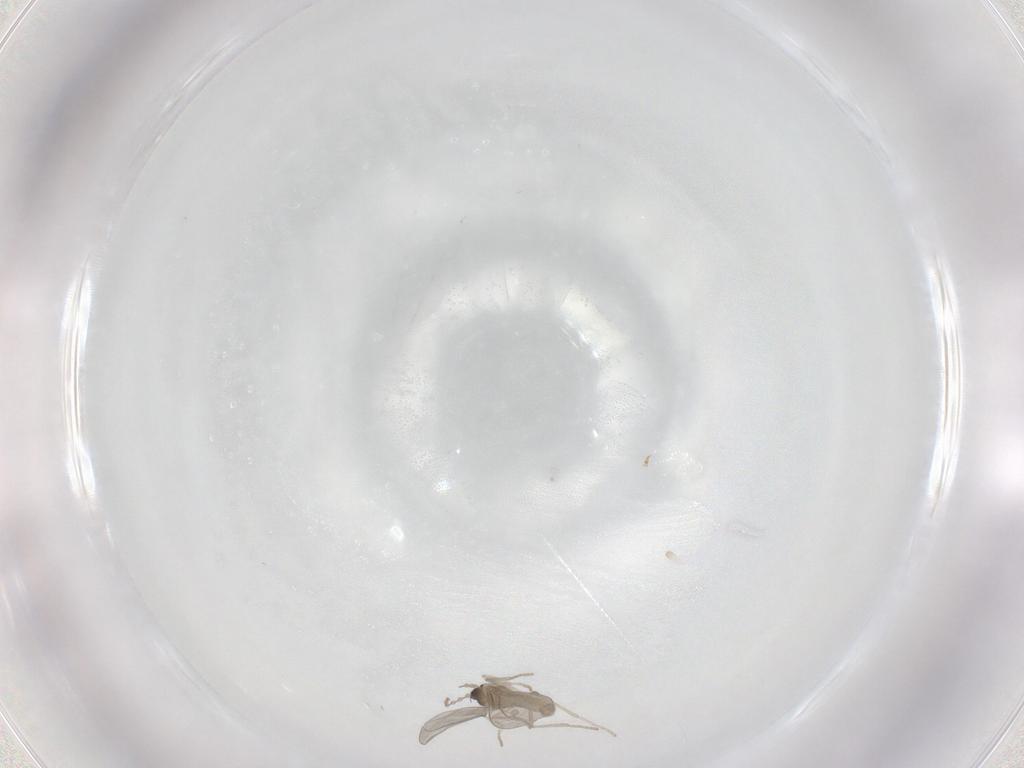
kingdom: Animalia
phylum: Arthropoda
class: Insecta
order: Diptera
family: Cecidomyiidae
